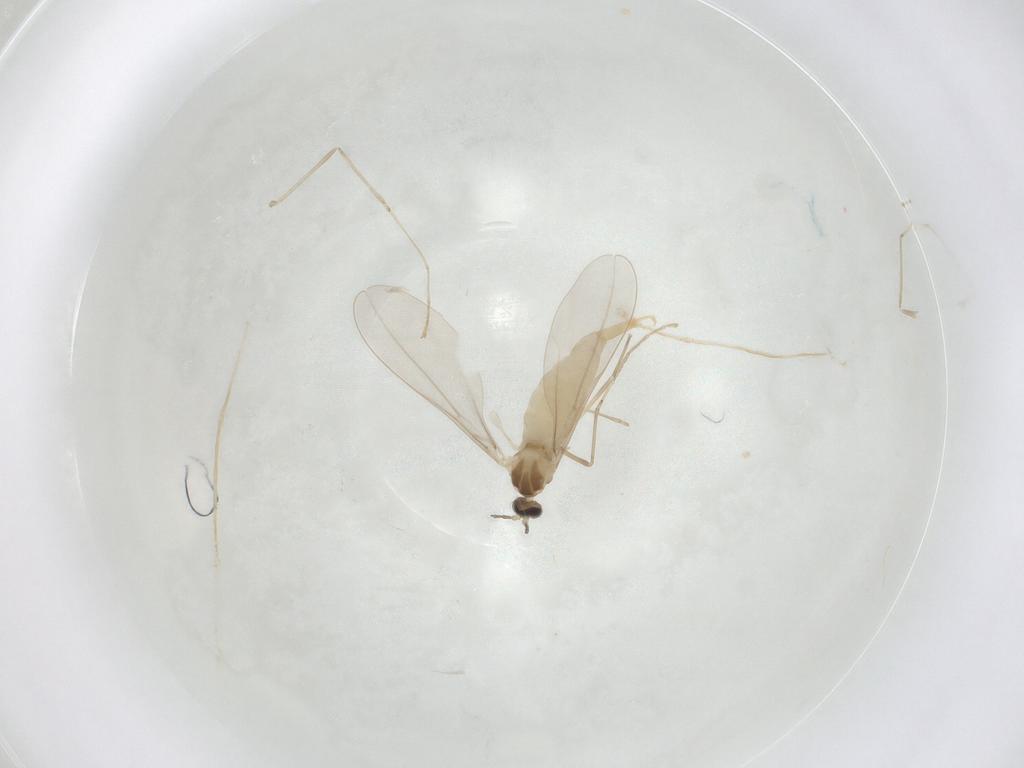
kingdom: Animalia
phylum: Arthropoda
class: Insecta
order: Diptera
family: Cecidomyiidae
